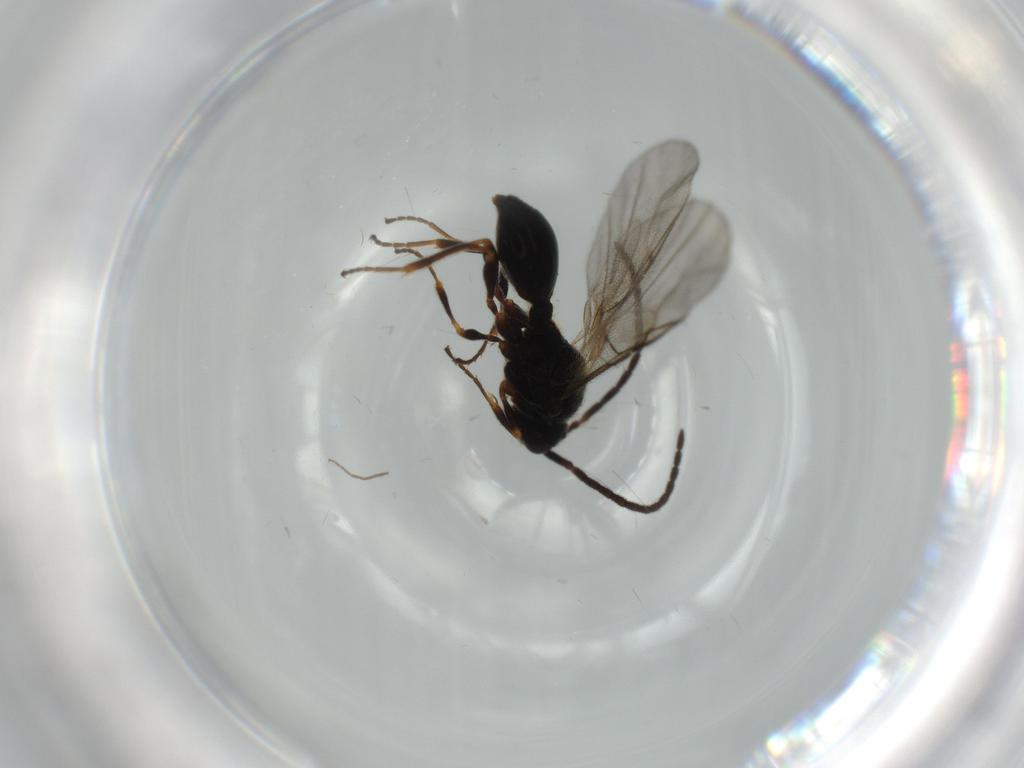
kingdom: Animalia
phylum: Arthropoda
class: Insecta
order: Hymenoptera
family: Diapriidae
